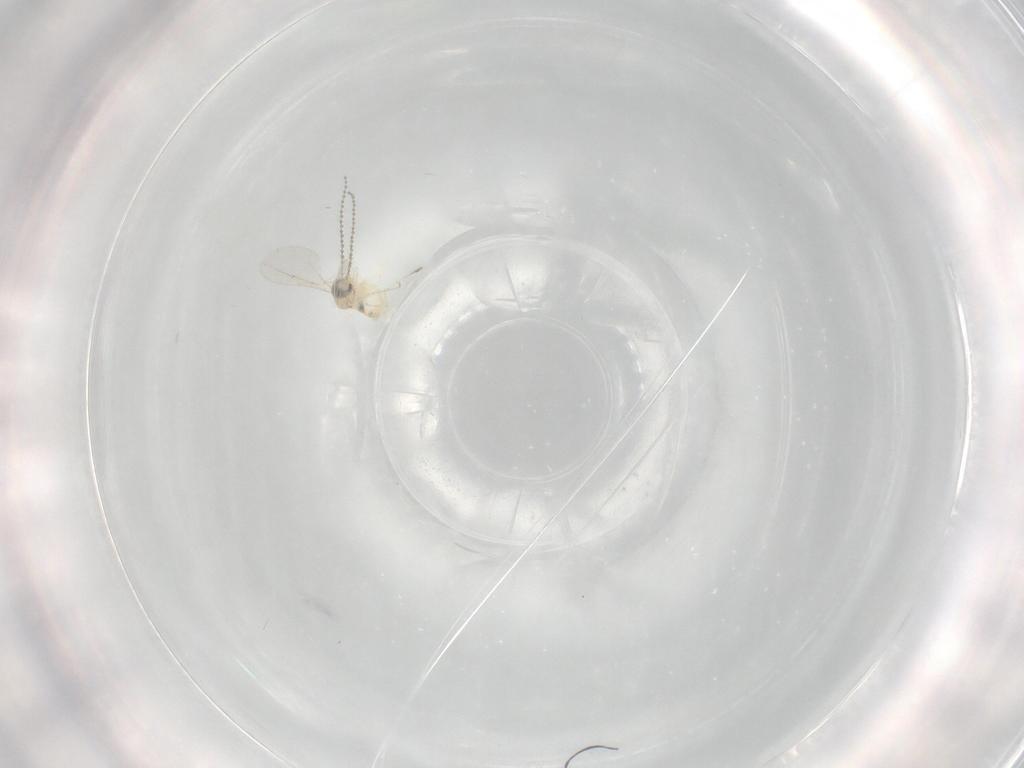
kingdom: Animalia
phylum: Arthropoda
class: Insecta
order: Diptera
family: Cecidomyiidae
